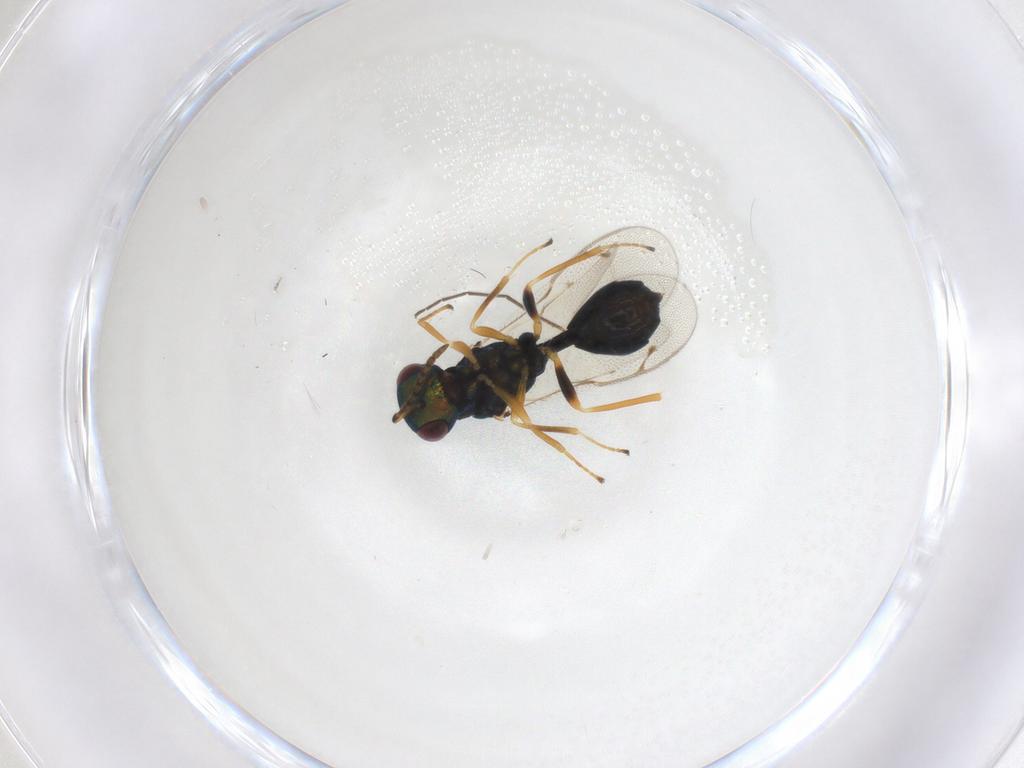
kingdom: Animalia
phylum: Arthropoda
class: Insecta
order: Hymenoptera
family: Pteromalidae
